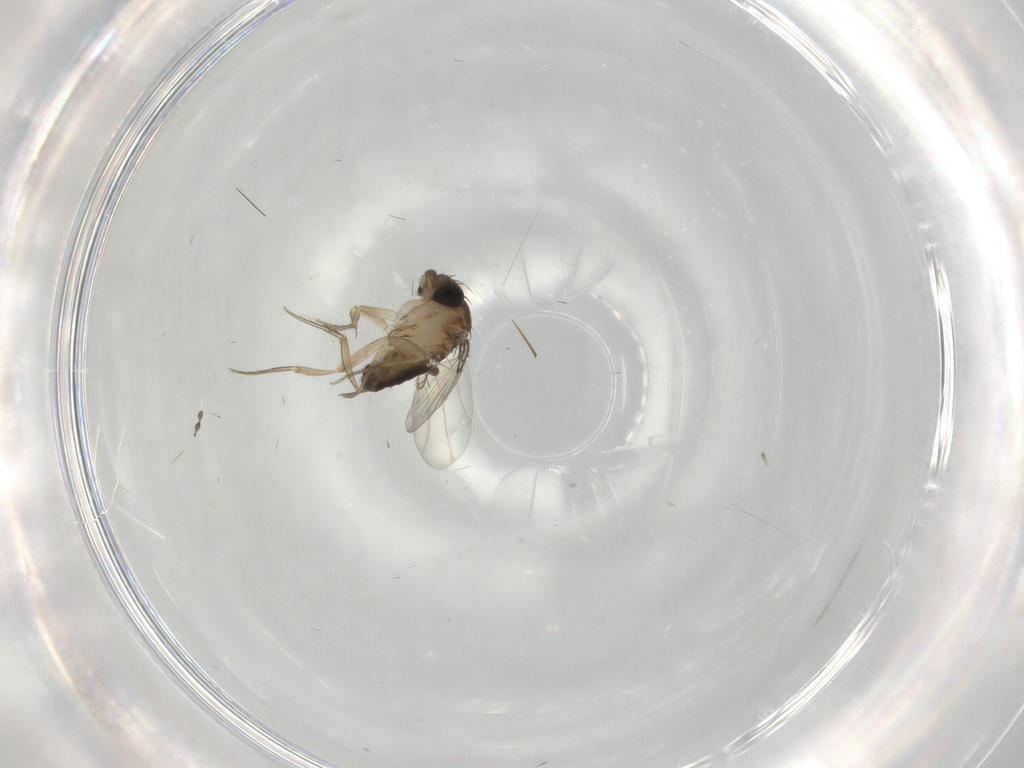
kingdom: Animalia
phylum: Arthropoda
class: Insecta
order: Diptera
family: Cecidomyiidae
